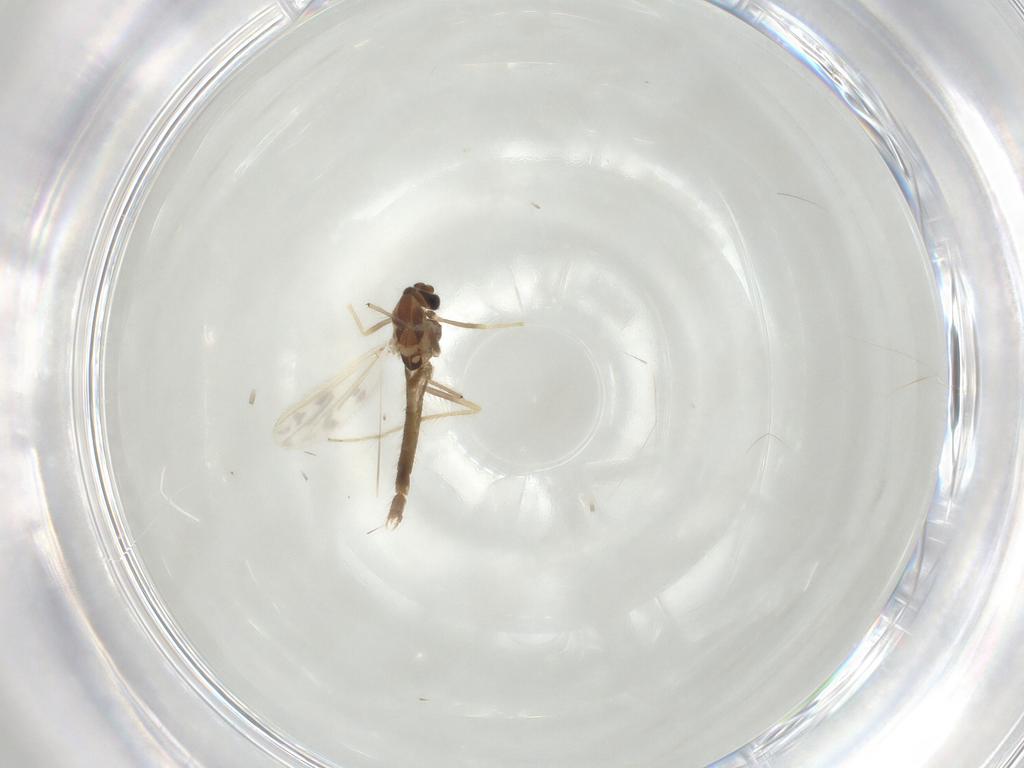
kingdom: Animalia
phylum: Arthropoda
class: Insecta
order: Diptera
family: Chironomidae
